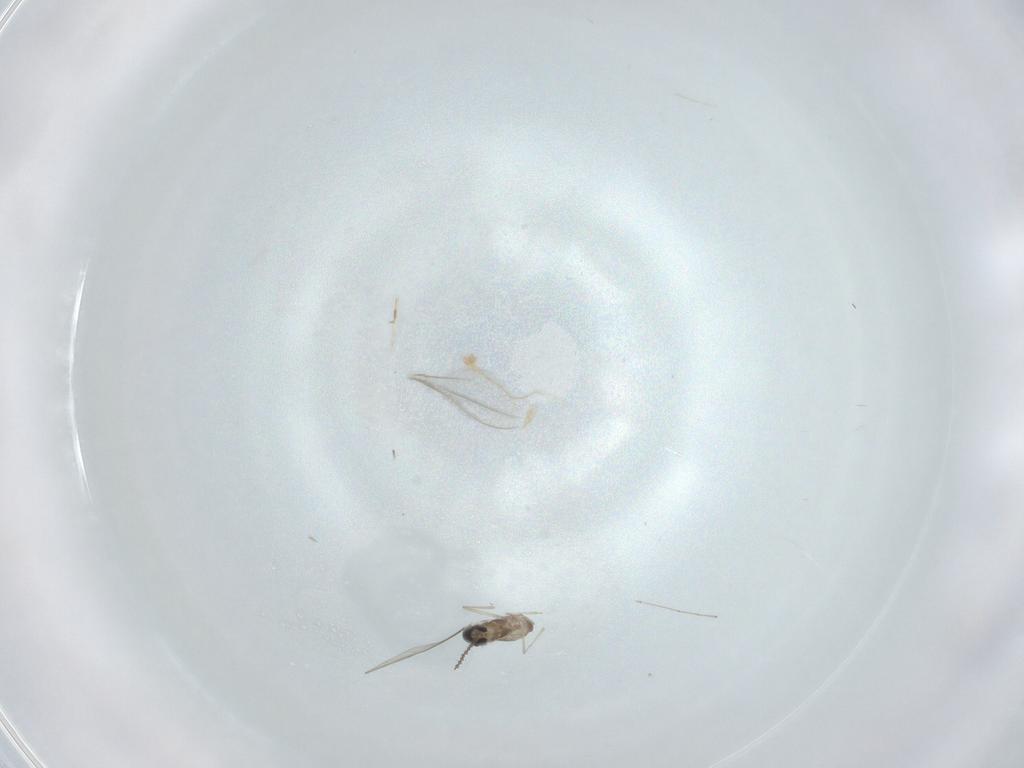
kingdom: Animalia
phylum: Arthropoda
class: Insecta
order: Diptera
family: Cecidomyiidae
